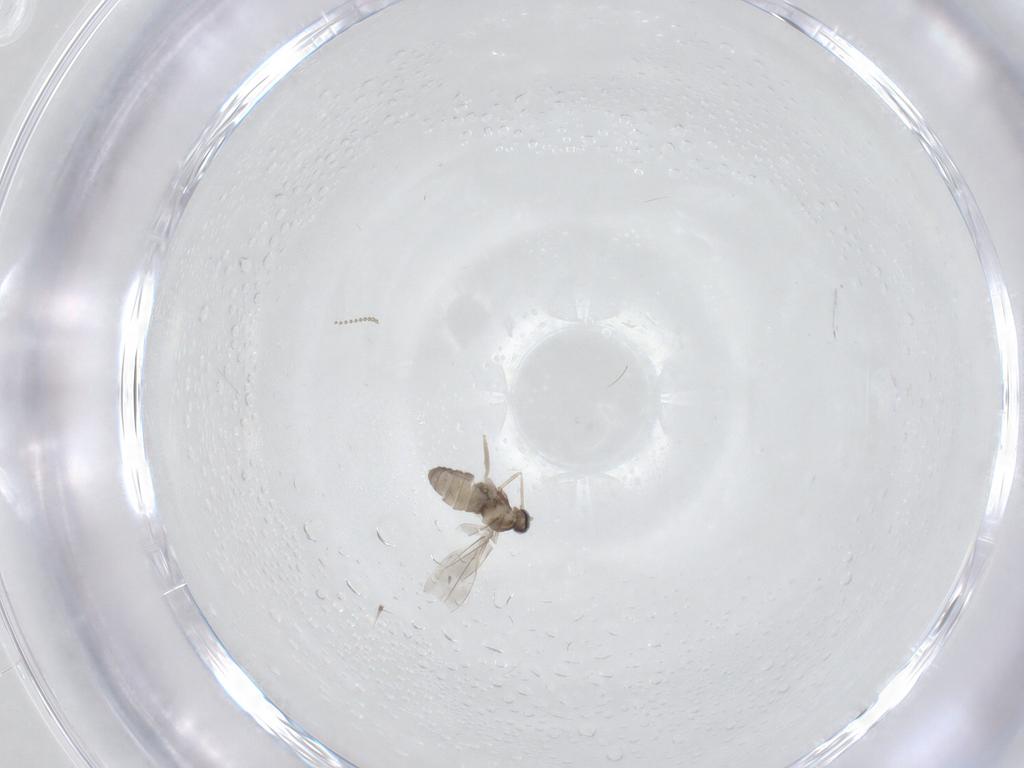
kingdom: Animalia
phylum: Arthropoda
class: Insecta
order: Diptera
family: Cecidomyiidae
